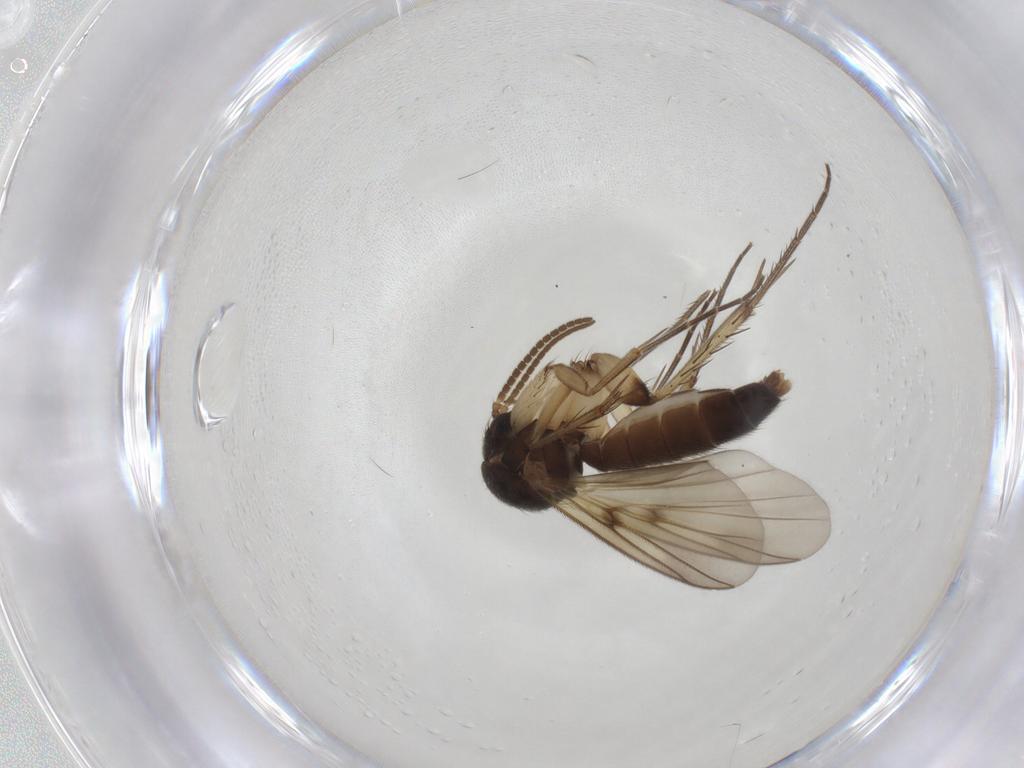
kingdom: Animalia
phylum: Arthropoda
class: Insecta
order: Diptera
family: Mycetophilidae
